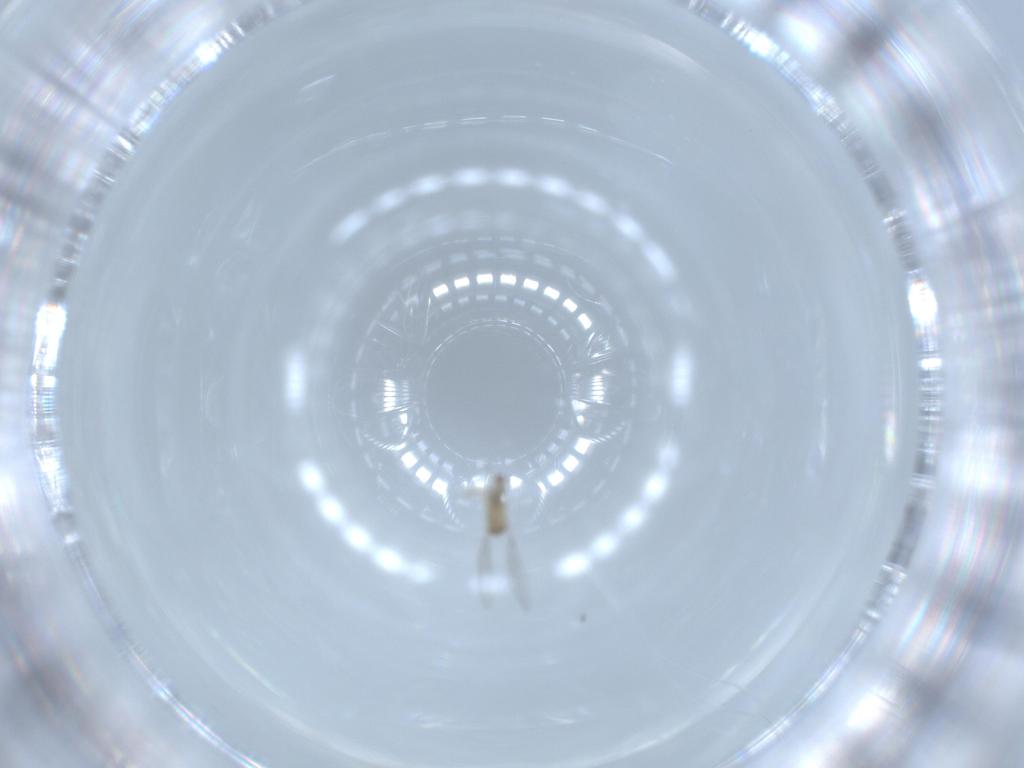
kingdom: Animalia
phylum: Arthropoda
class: Insecta
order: Diptera
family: Cecidomyiidae
